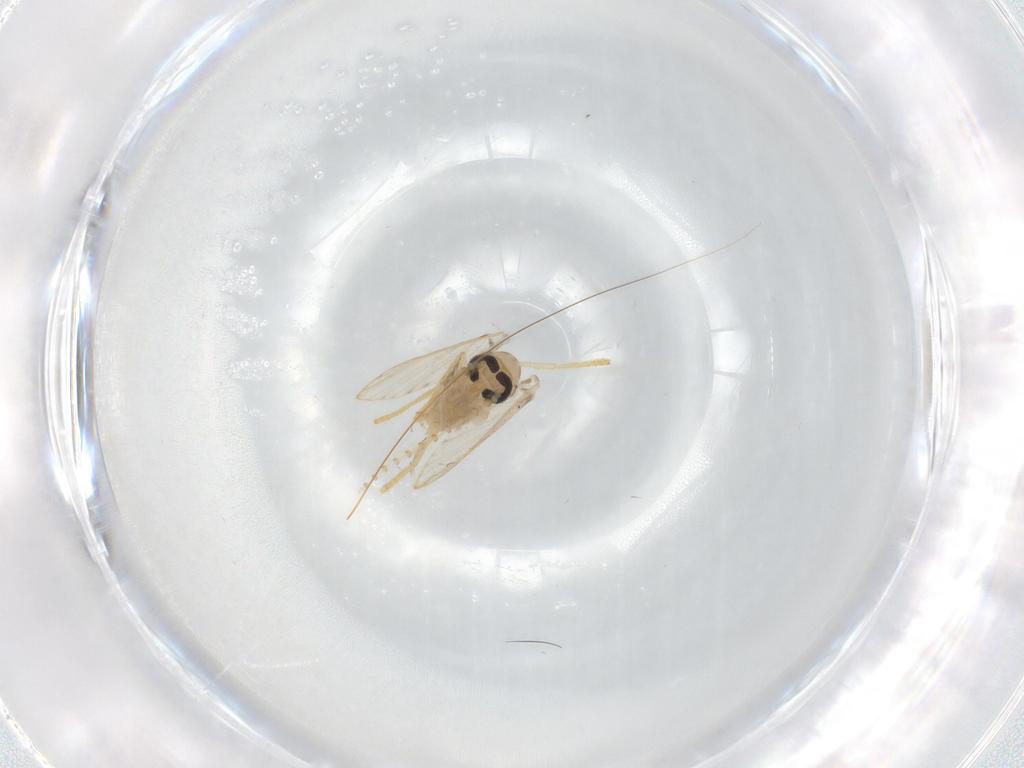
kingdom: Animalia
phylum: Arthropoda
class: Insecta
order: Diptera
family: Psychodidae
